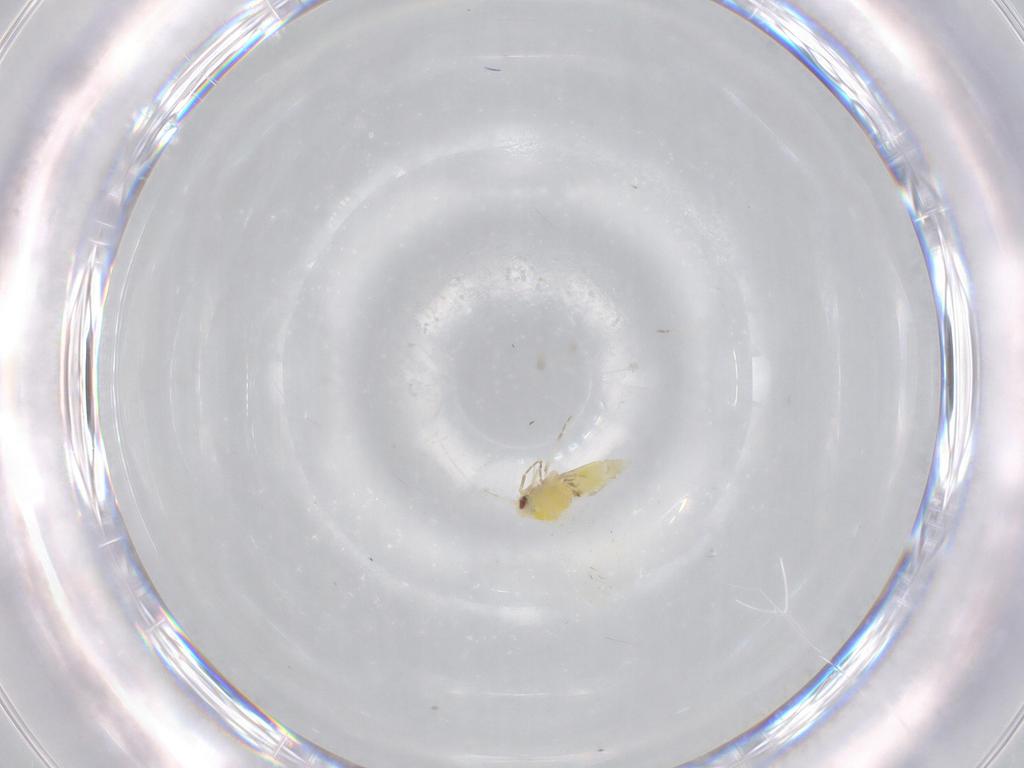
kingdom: Animalia
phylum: Arthropoda
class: Insecta
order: Hemiptera
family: Aleyrodidae
